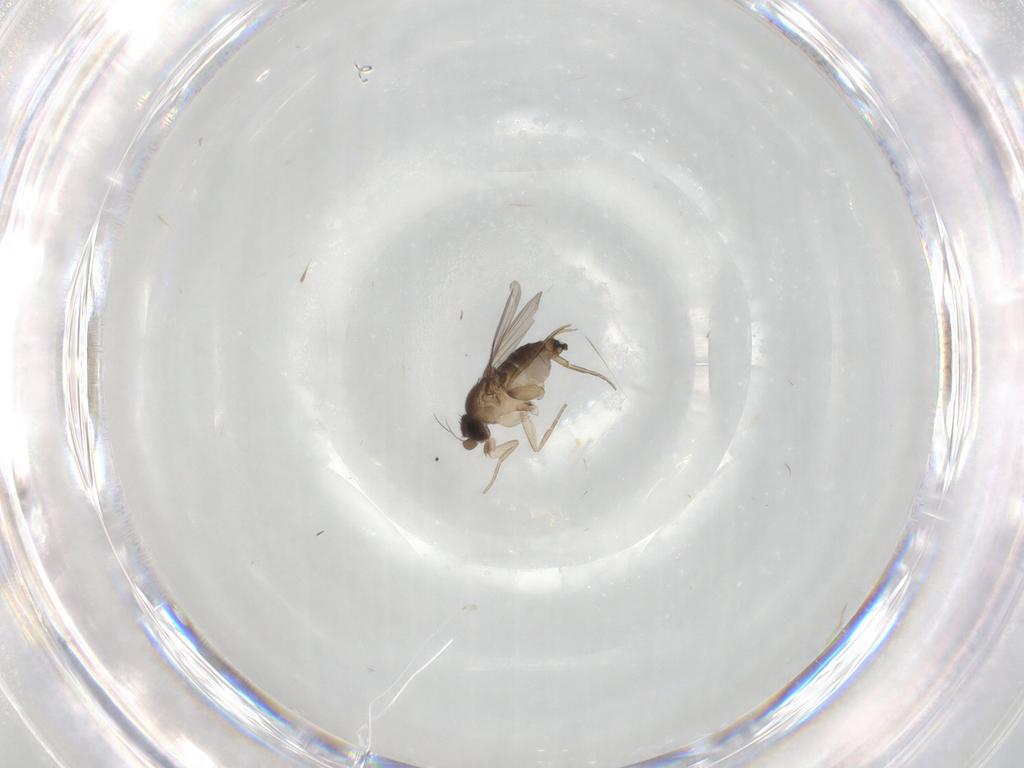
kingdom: Animalia
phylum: Arthropoda
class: Insecta
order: Diptera
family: Phoridae
